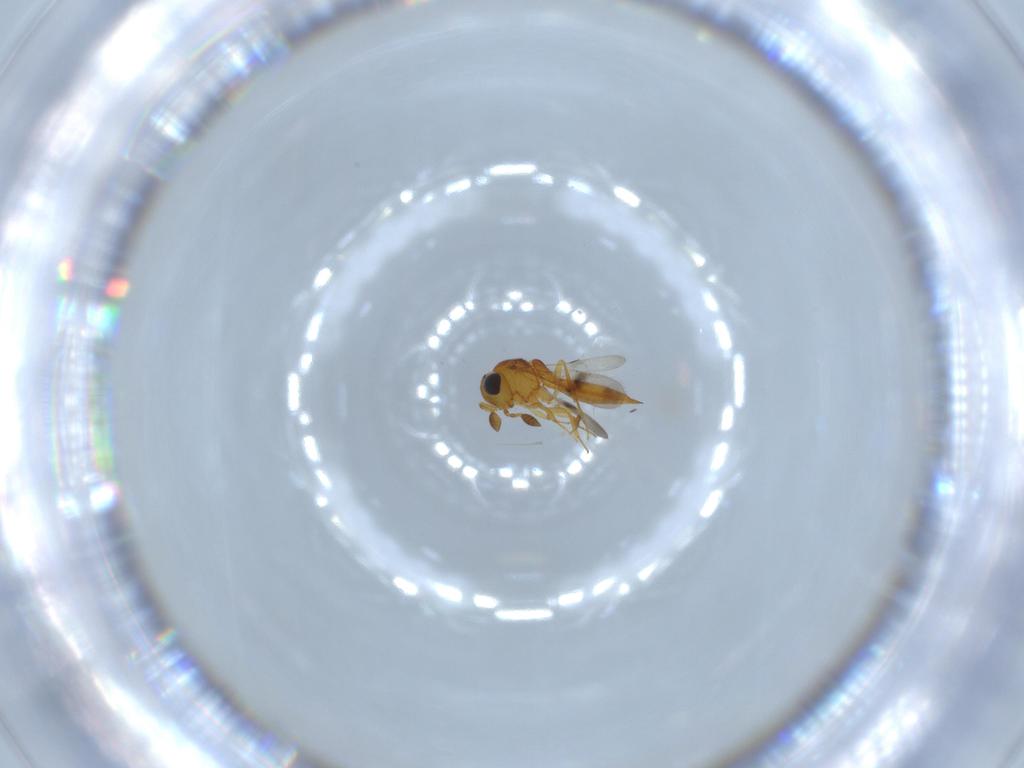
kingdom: Animalia
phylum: Arthropoda
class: Insecta
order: Hymenoptera
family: Scelionidae
